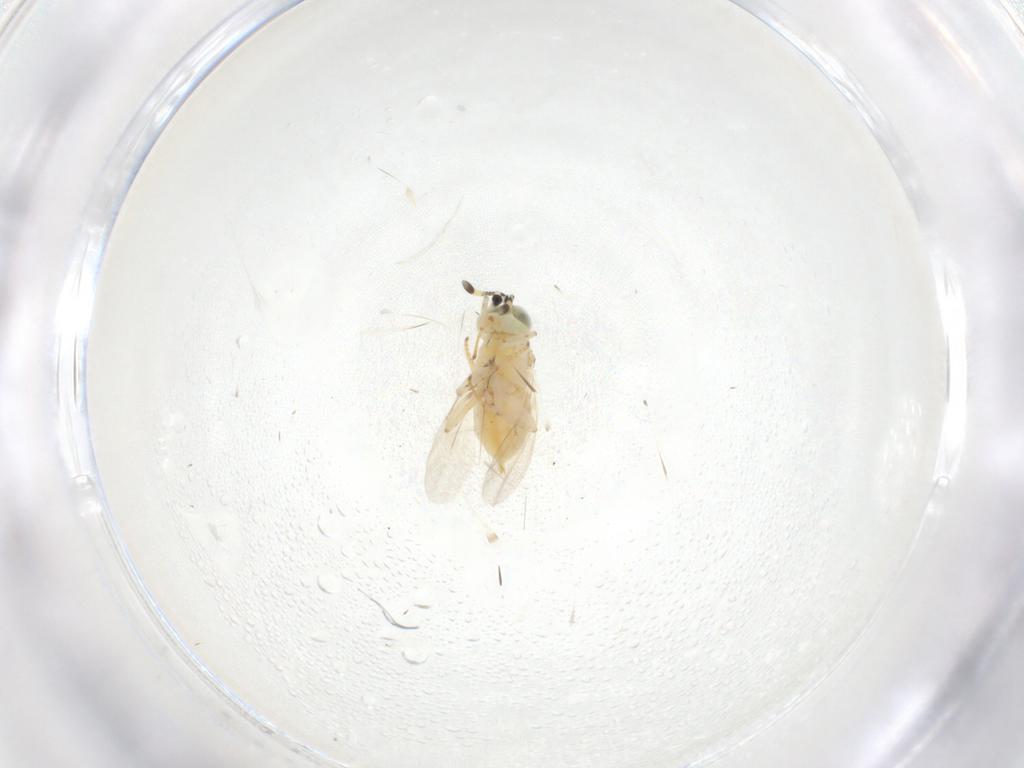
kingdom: Animalia
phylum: Arthropoda
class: Insecta
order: Hymenoptera
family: Encyrtidae
